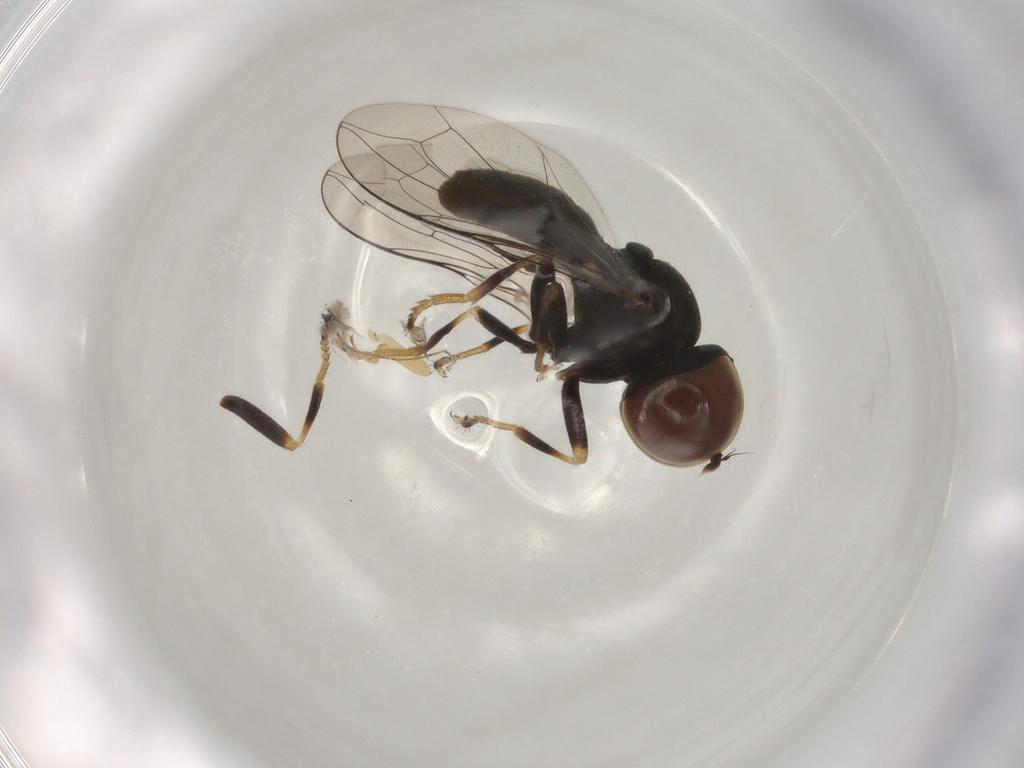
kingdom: Animalia
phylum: Arthropoda
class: Insecta
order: Diptera
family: Pipunculidae
